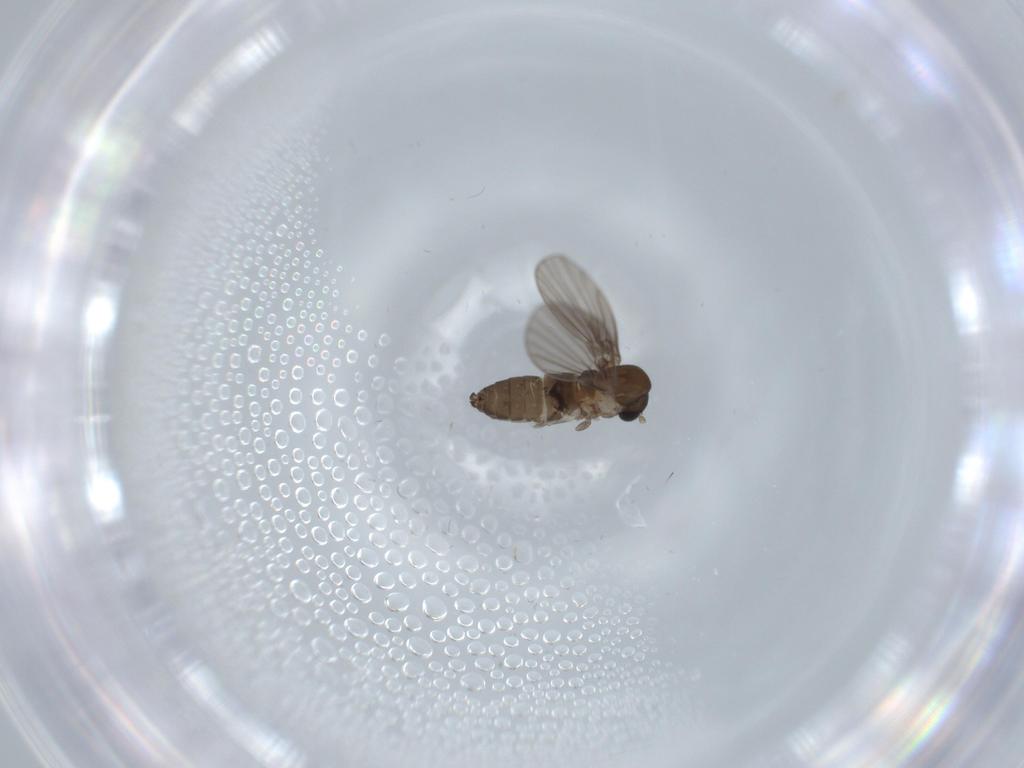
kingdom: Animalia
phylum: Arthropoda
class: Insecta
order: Diptera
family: Psychodidae
